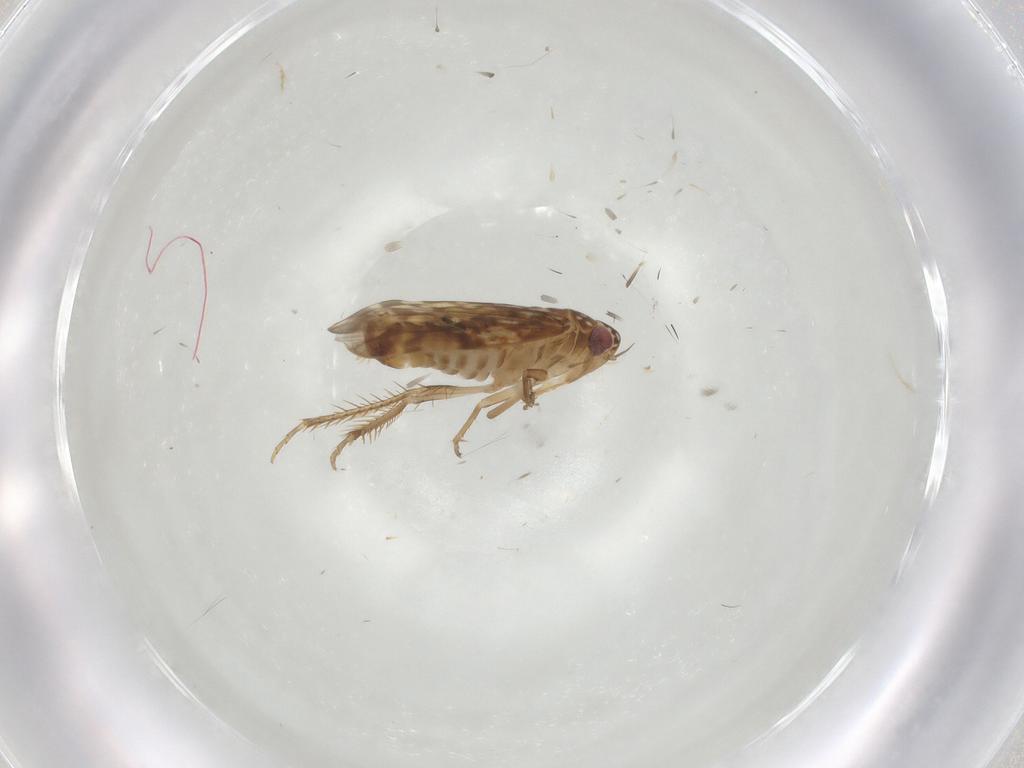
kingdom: Animalia
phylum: Arthropoda
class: Insecta
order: Hemiptera
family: Cicadellidae
